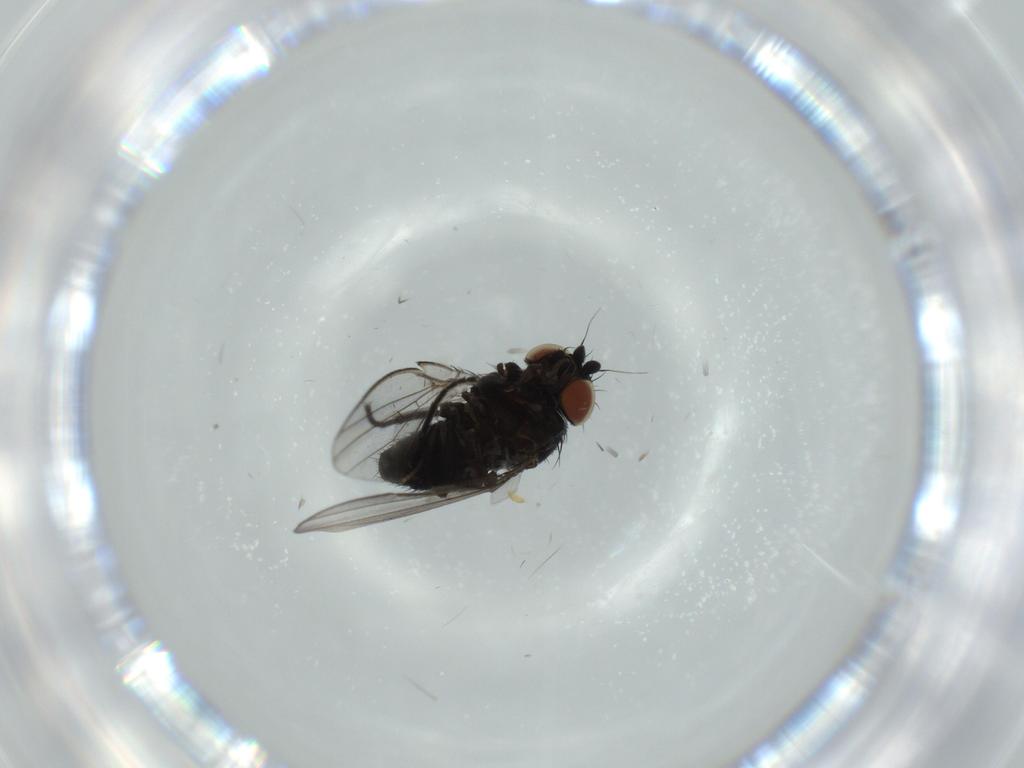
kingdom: Animalia
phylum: Arthropoda
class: Insecta
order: Diptera
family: Milichiidae
